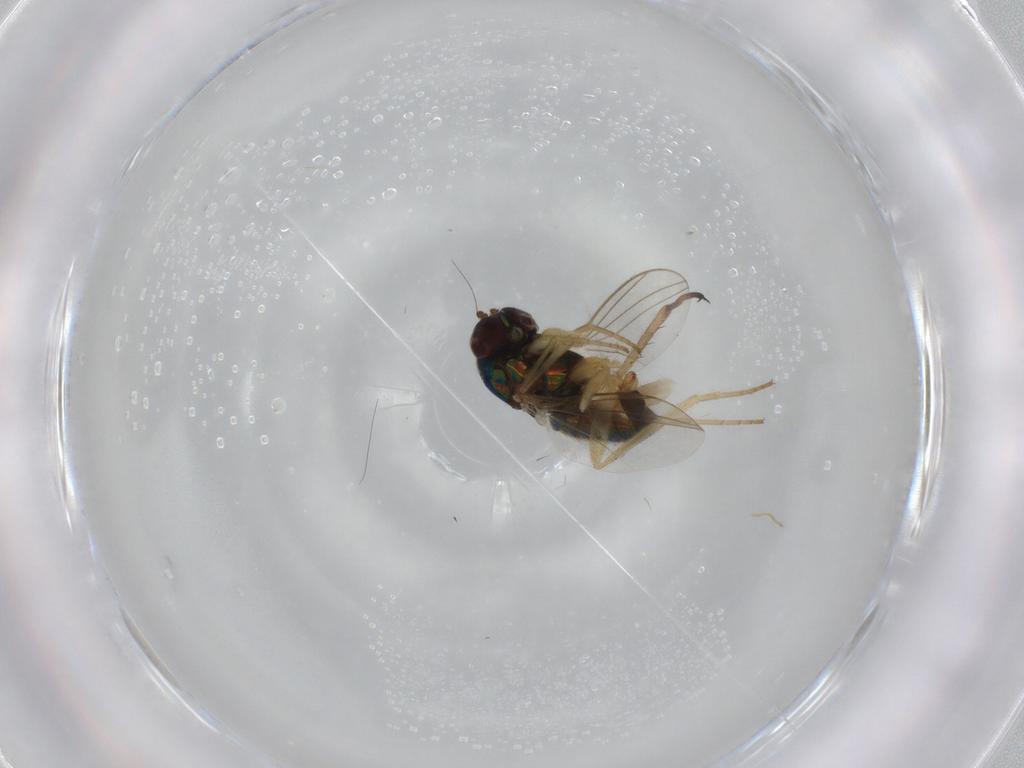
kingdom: Animalia
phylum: Arthropoda
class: Insecta
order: Diptera
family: Dolichopodidae
